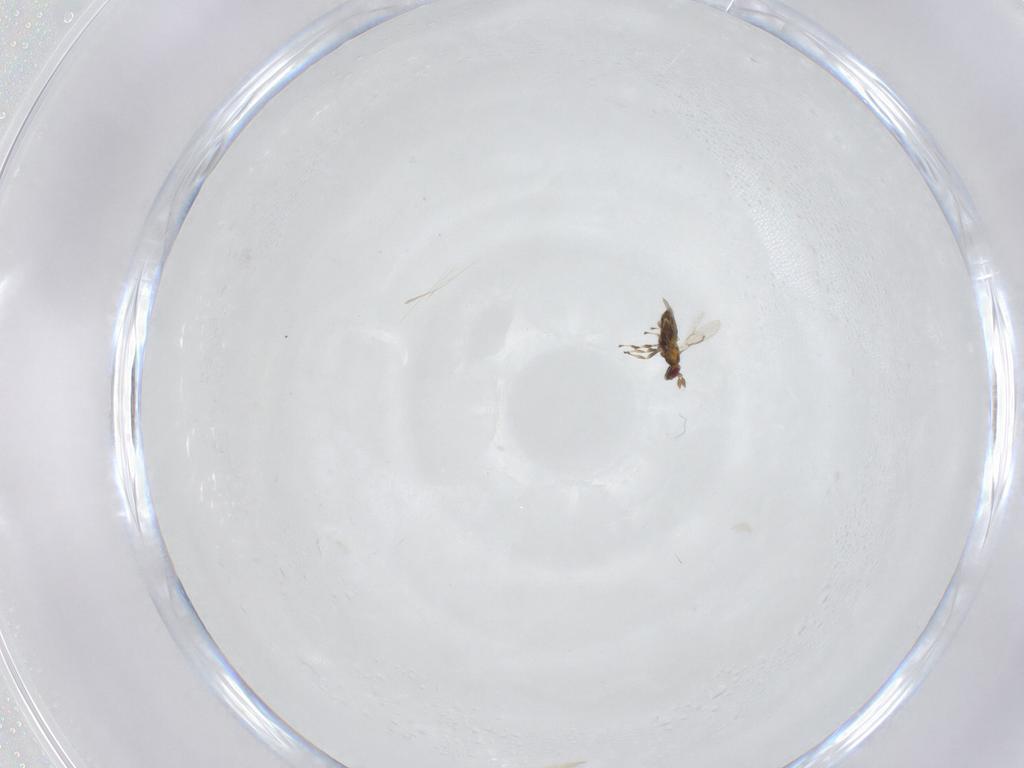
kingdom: Animalia
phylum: Arthropoda
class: Insecta
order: Hymenoptera
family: Trichogrammatidae
